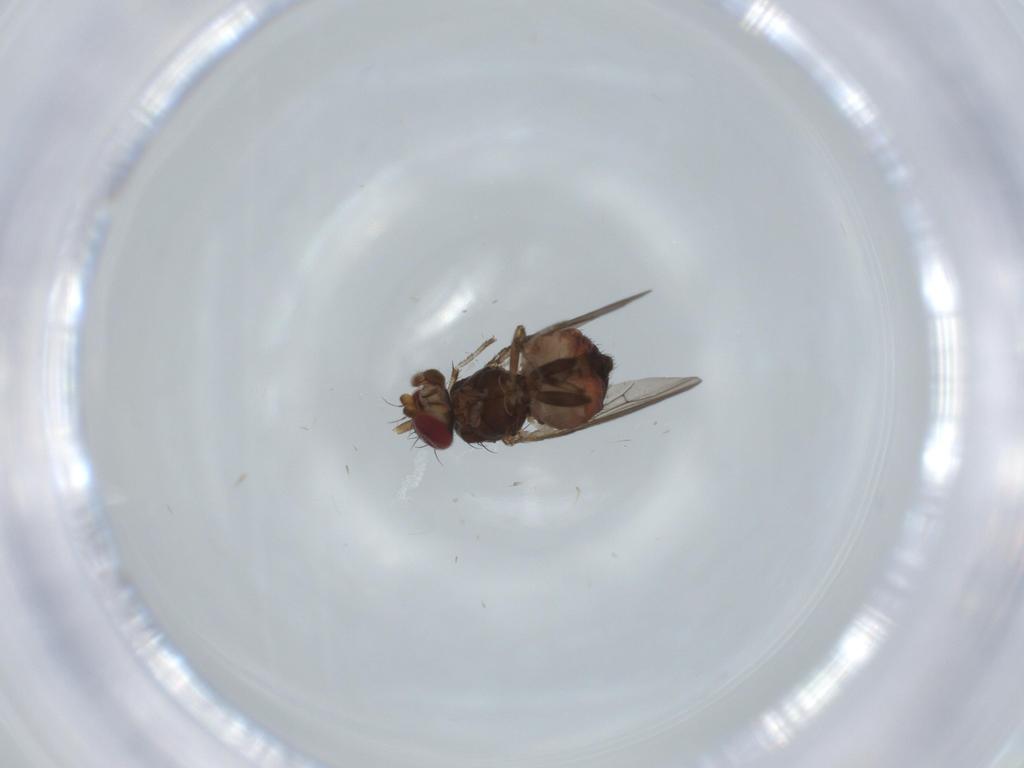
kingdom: Animalia
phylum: Arthropoda
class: Insecta
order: Diptera
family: Heleomyzidae
